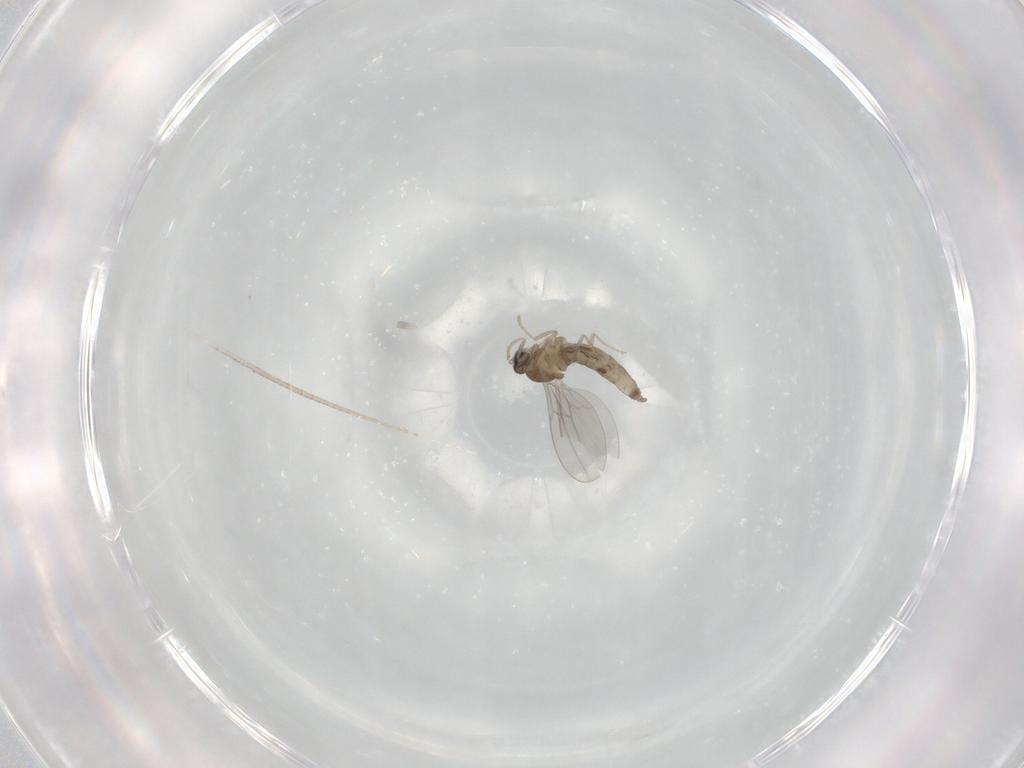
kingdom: Animalia
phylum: Arthropoda
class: Insecta
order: Diptera
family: Cecidomyiidae
